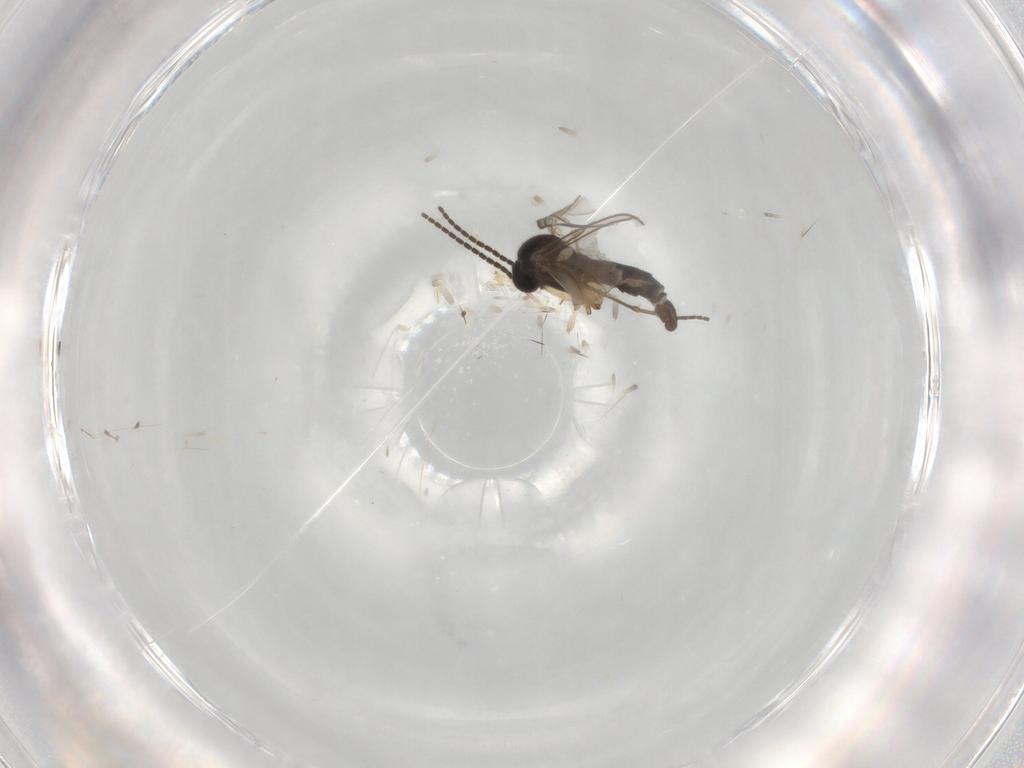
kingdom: Animalia
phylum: Arthropoda
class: Insecta
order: Diptera
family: Sciaridae
